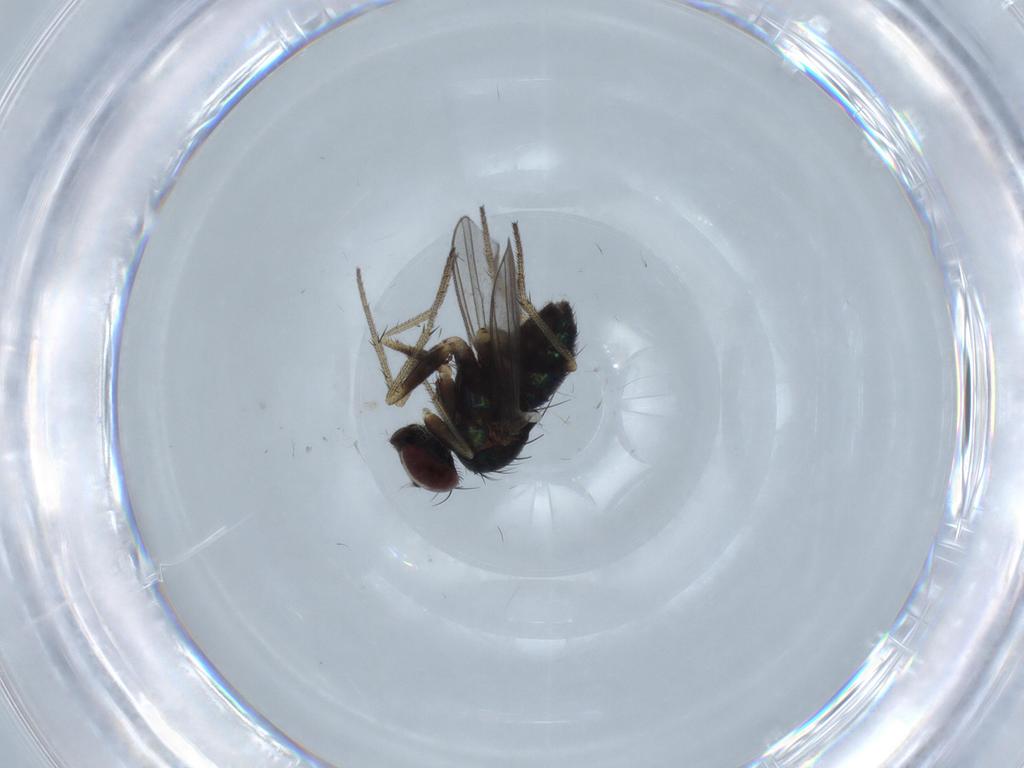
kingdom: Animalia
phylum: Arthropoda
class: Insecta
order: Diptera
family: Dolichopodidae
